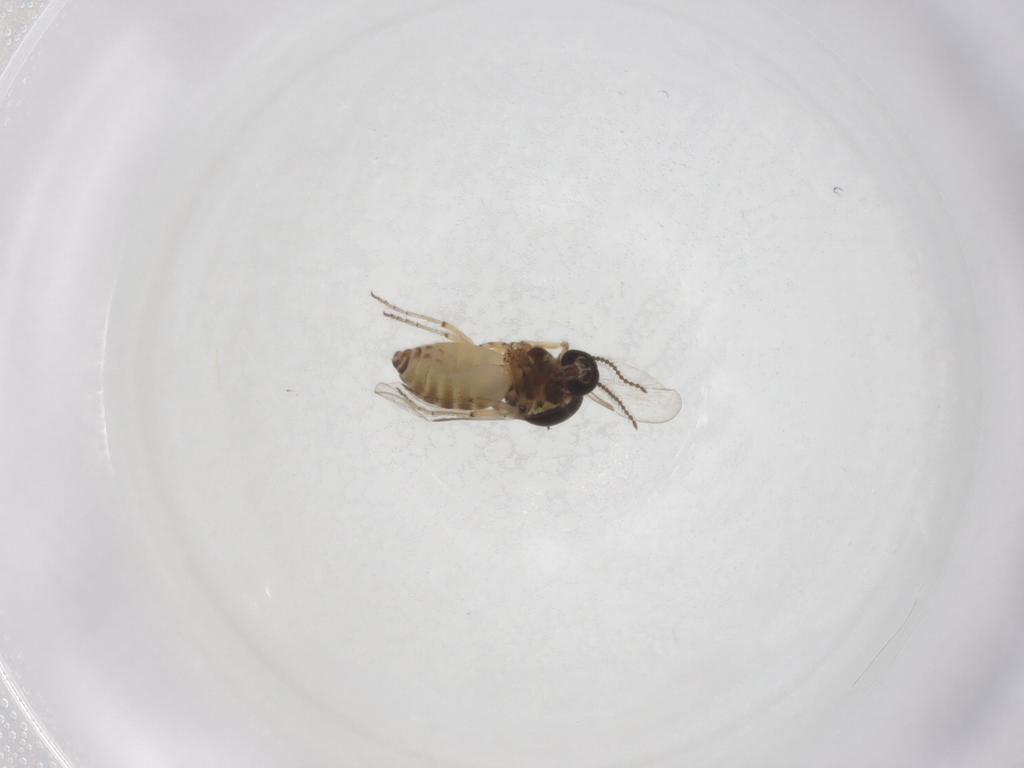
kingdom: Animalia
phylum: Arthropoda
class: Insecta
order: Diptera
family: Ceratopogonidae
